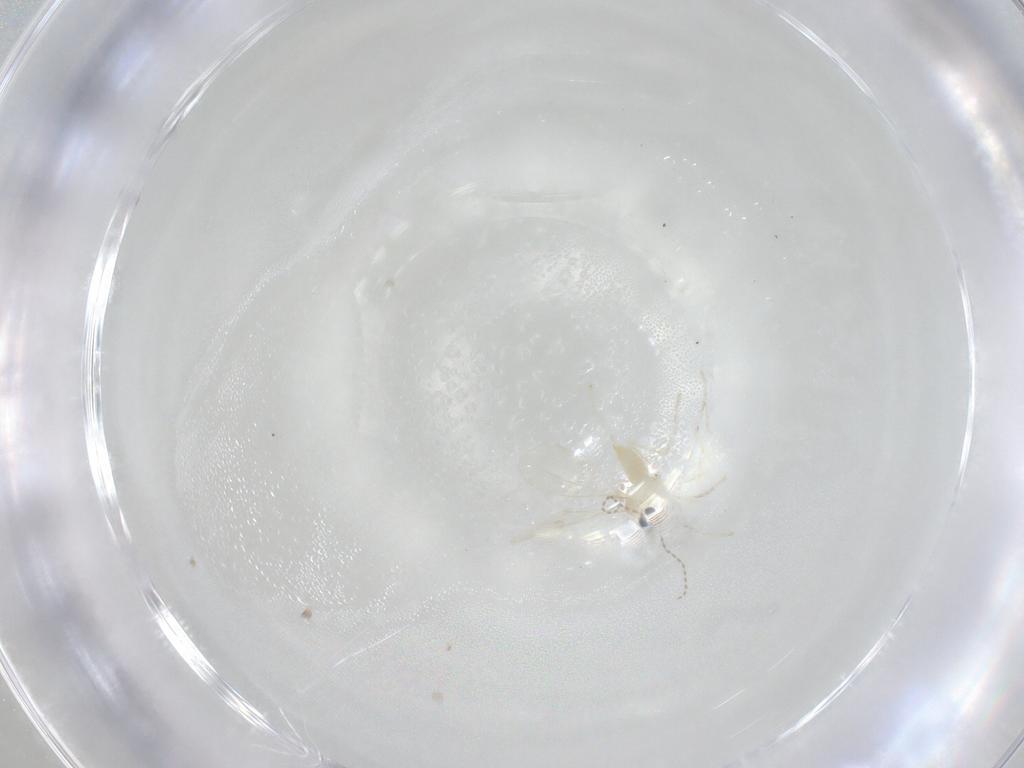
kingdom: Animalia
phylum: Arthropoda
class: Insecta
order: Diptera
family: Cecidomyiidae
